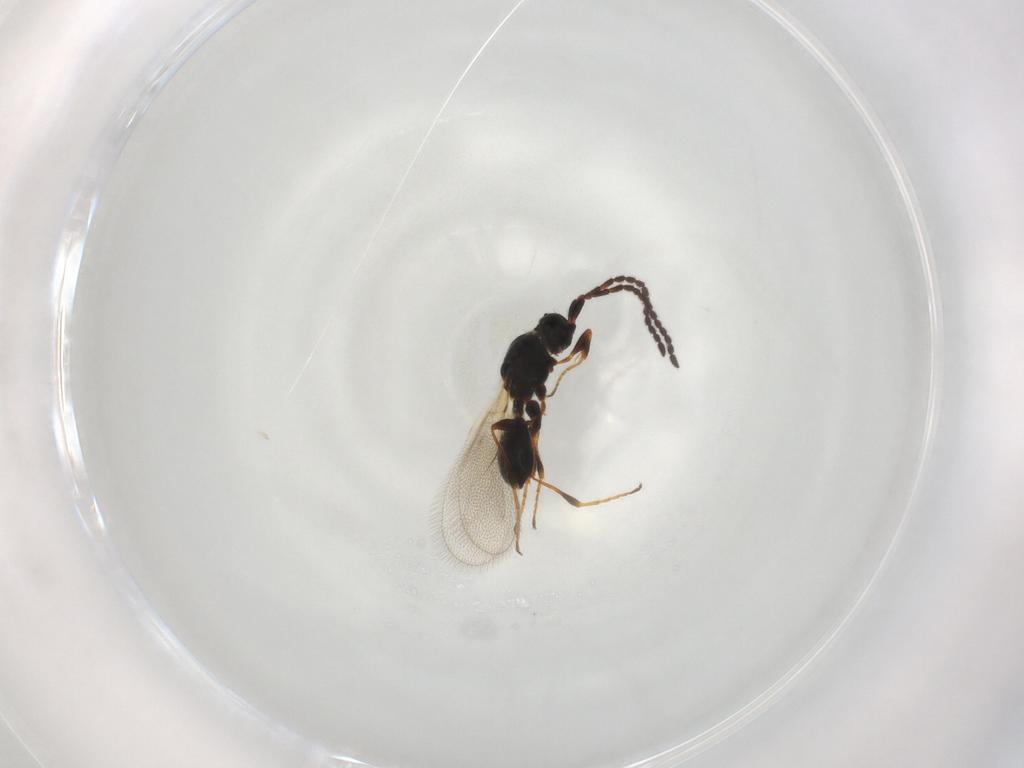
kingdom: Animalia
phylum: Arthropoda
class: Insecta
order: Hymenoptera
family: Diapriidae
